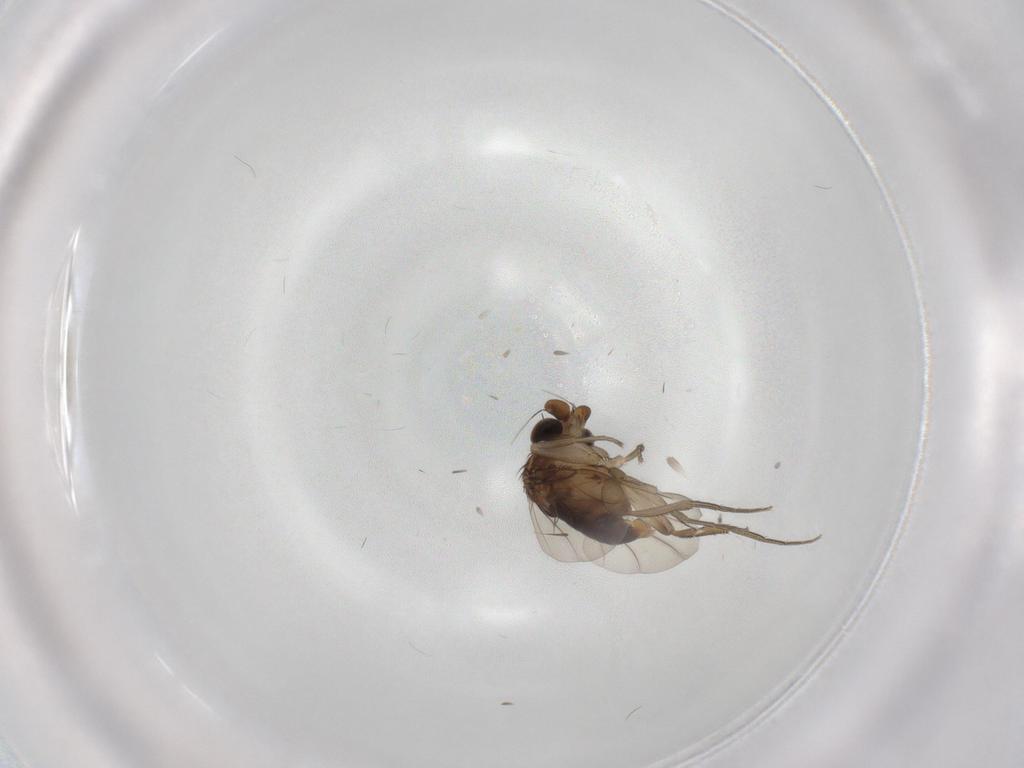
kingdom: Animalia
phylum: Arthropoda
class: Insecta
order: Diptera
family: Phoridae
